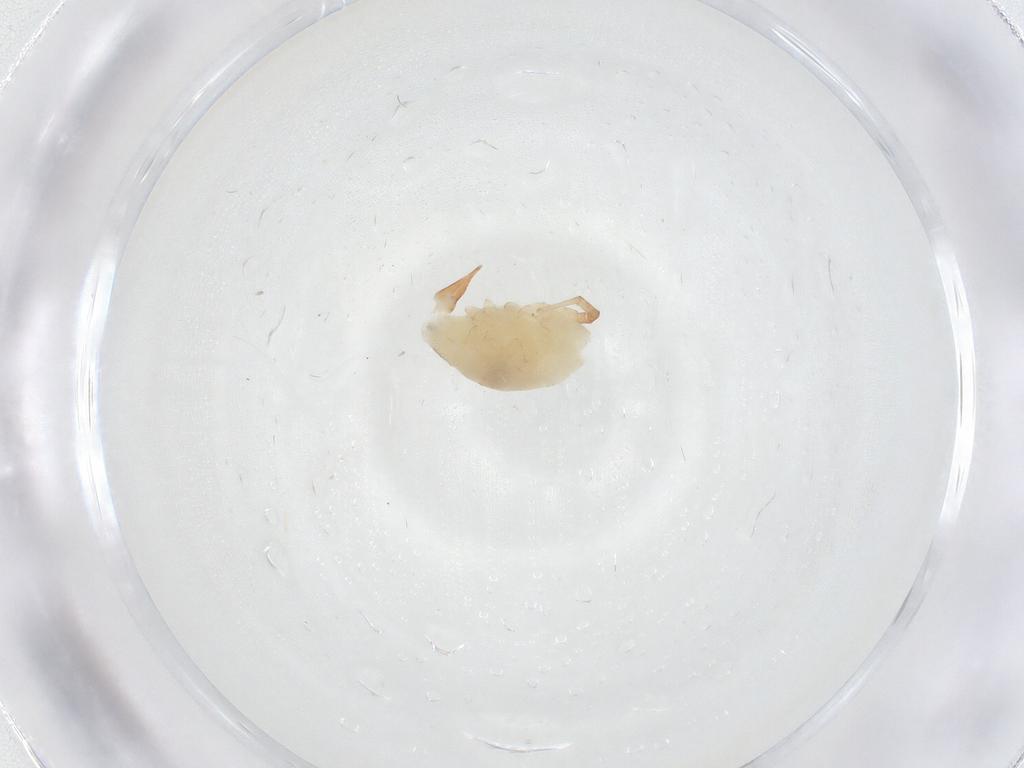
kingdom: Animalia
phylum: Arthropoda
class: Arachnida
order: Trombidiformes
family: Bdellidae
